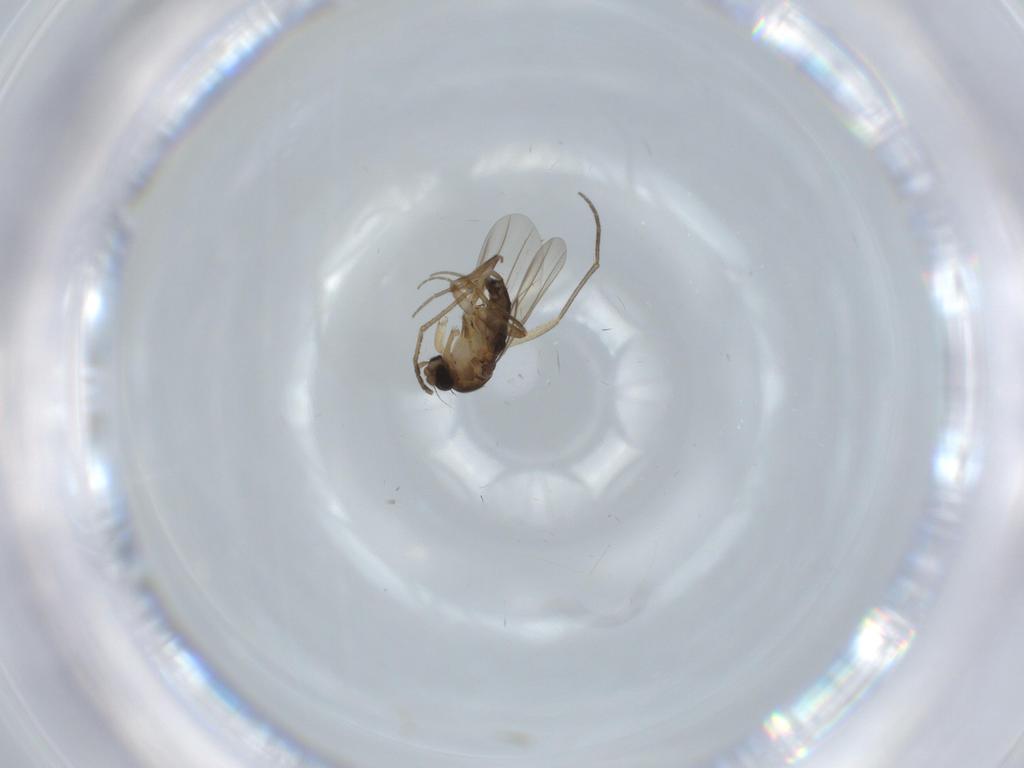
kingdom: Animalia
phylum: Arthropoda
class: Insecta
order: Diptera
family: Phoridae
